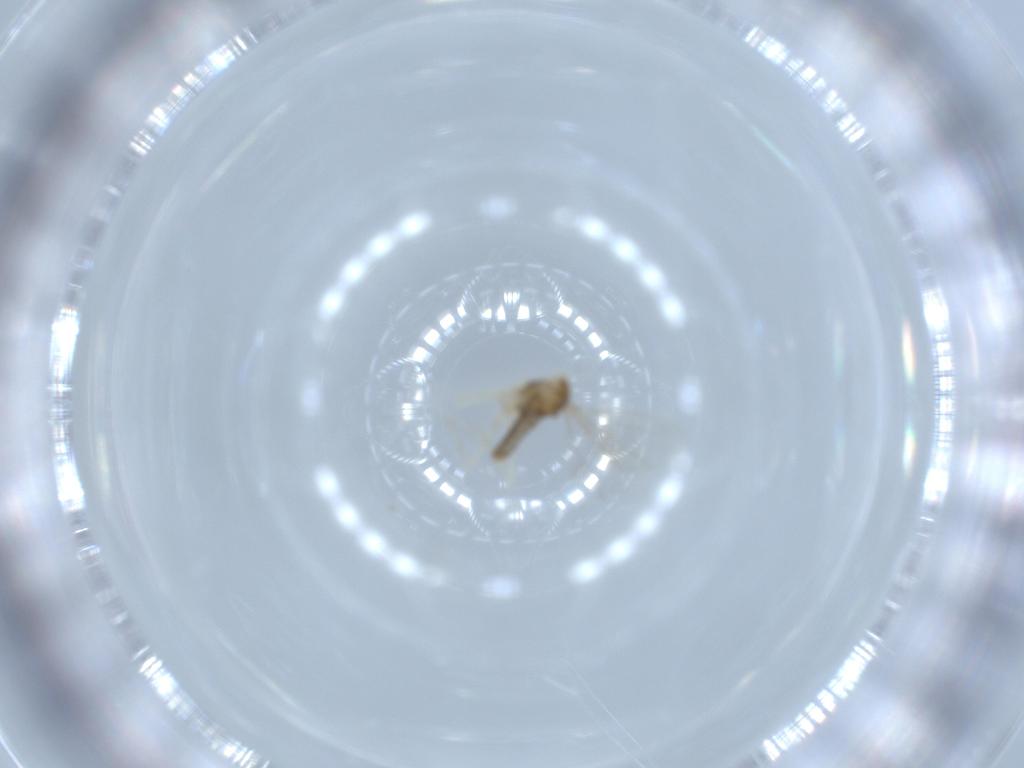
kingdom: Animalia
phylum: Arthropoda
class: Insecta
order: Diptera
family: Cecidomyiidae
